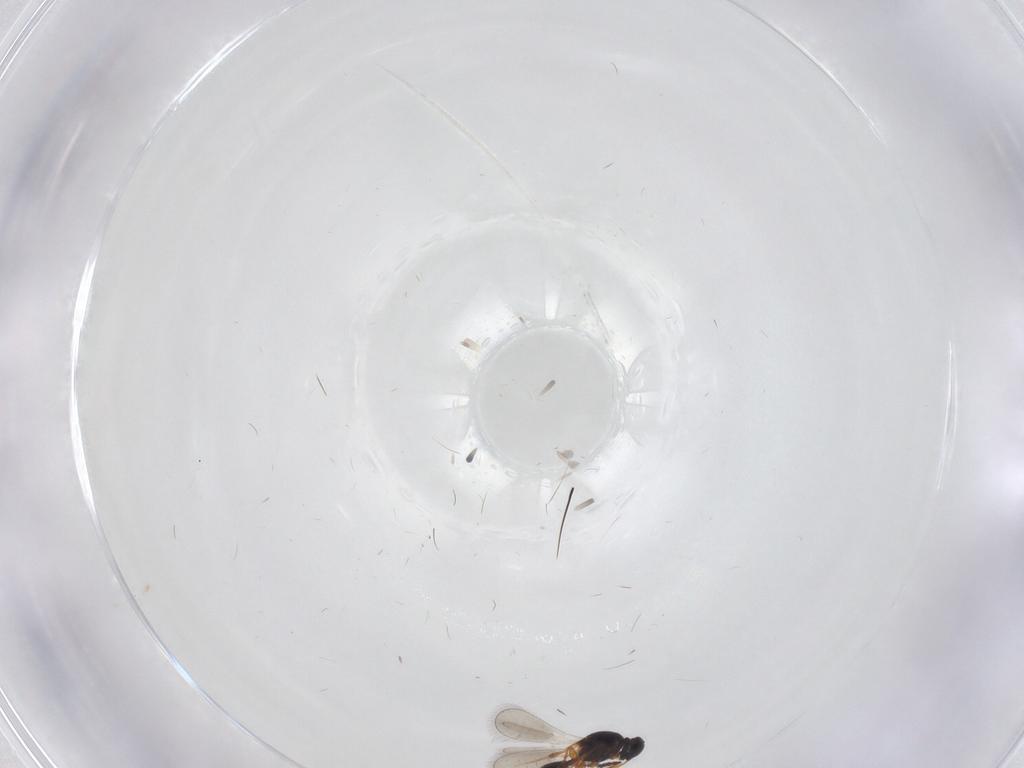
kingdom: Animalia
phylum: Arthropoda
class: Insecta
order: Hymenoptera
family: Platygastridae
